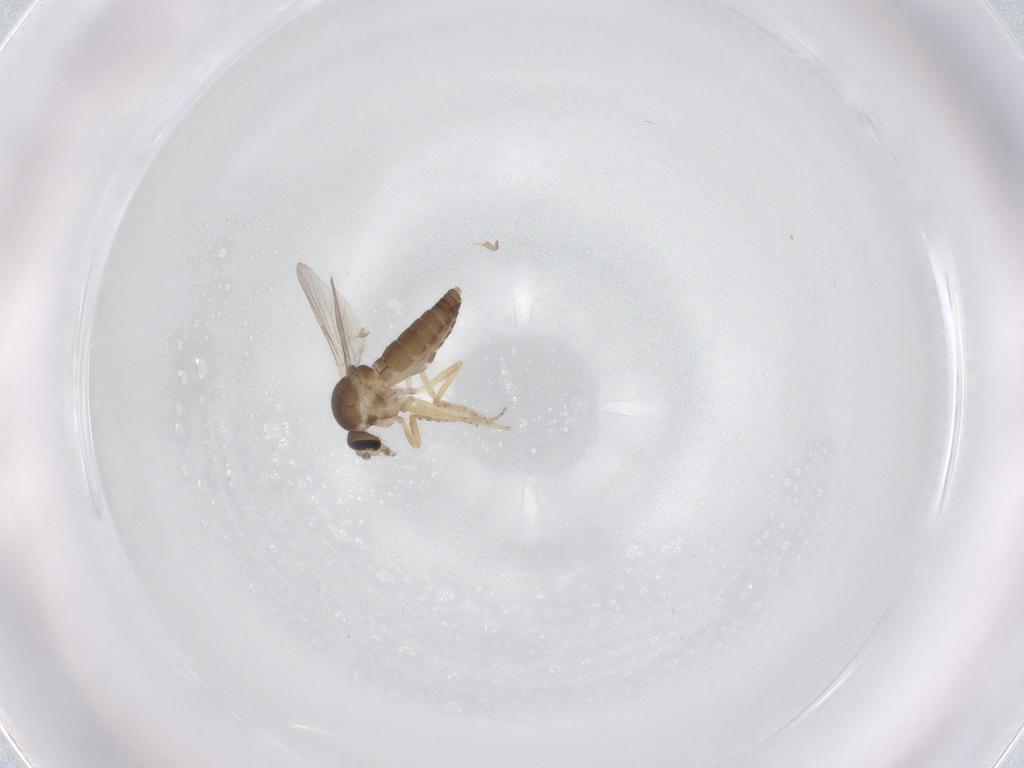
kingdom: Animalia
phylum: Arthropoda
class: Insecta
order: Diptera
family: Ceratopogonidae
